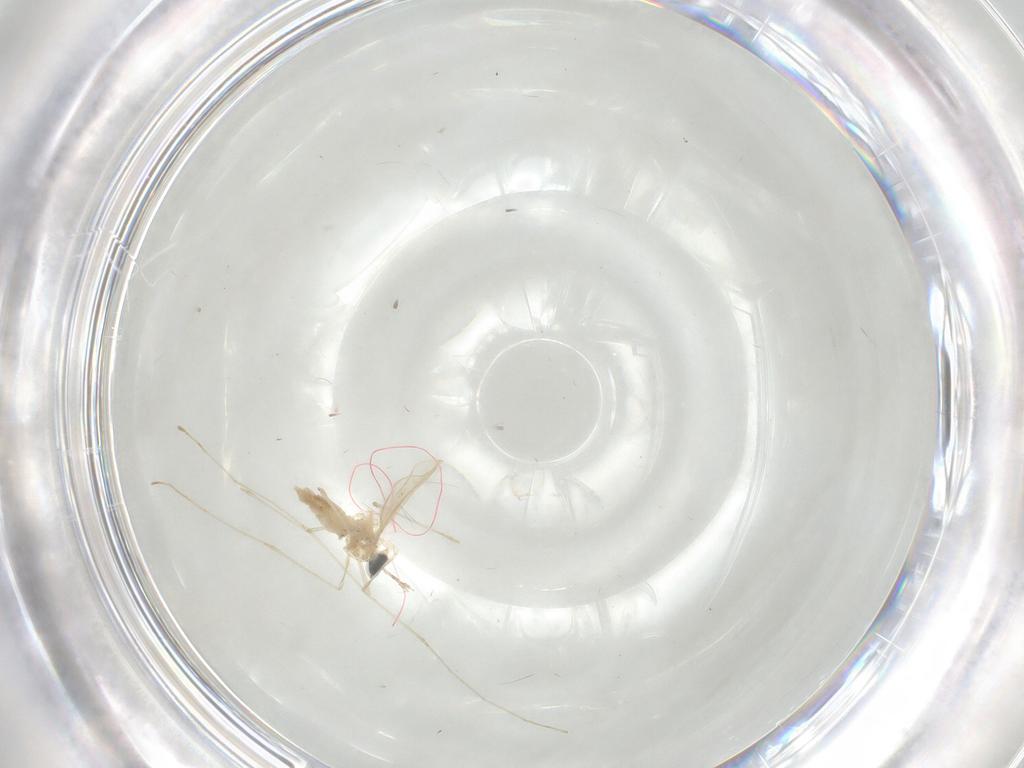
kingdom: Animalia
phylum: Arthropoda
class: Insecta
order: Diptera
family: Cecidomyiidae
